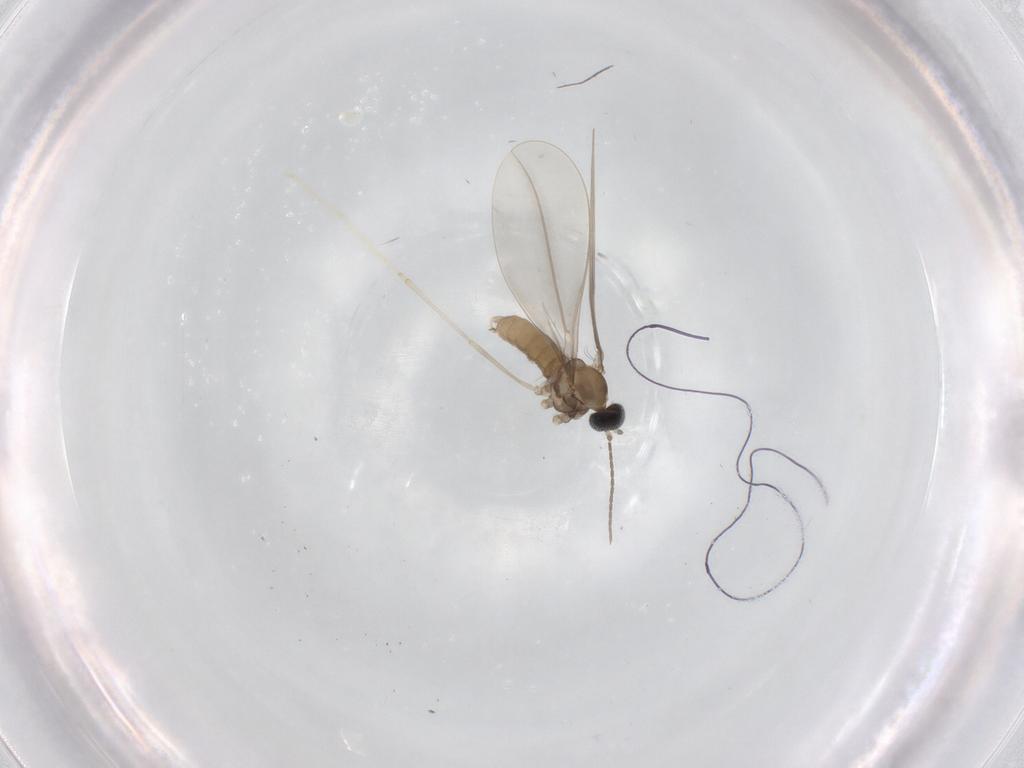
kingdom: Animalia
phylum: Arthropoda
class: Insecta
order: Diptera
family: Cecidomyiidae
